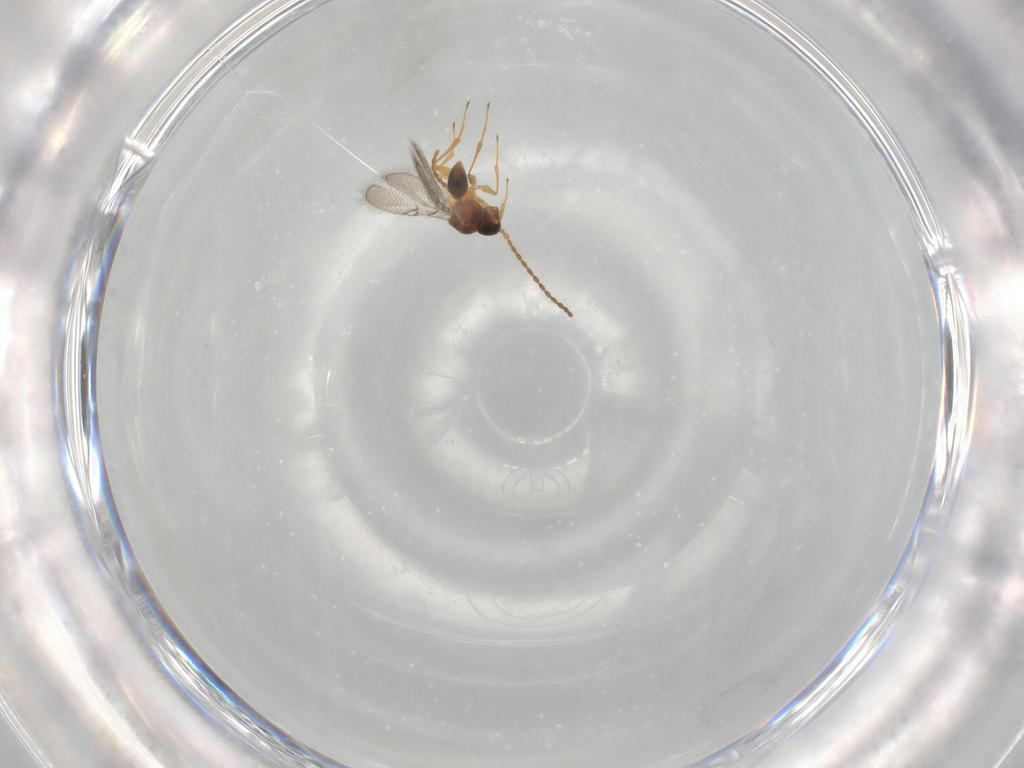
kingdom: Animalia
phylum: Arthropoda
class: Insecta
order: Hymenoptera
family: Figitidae
